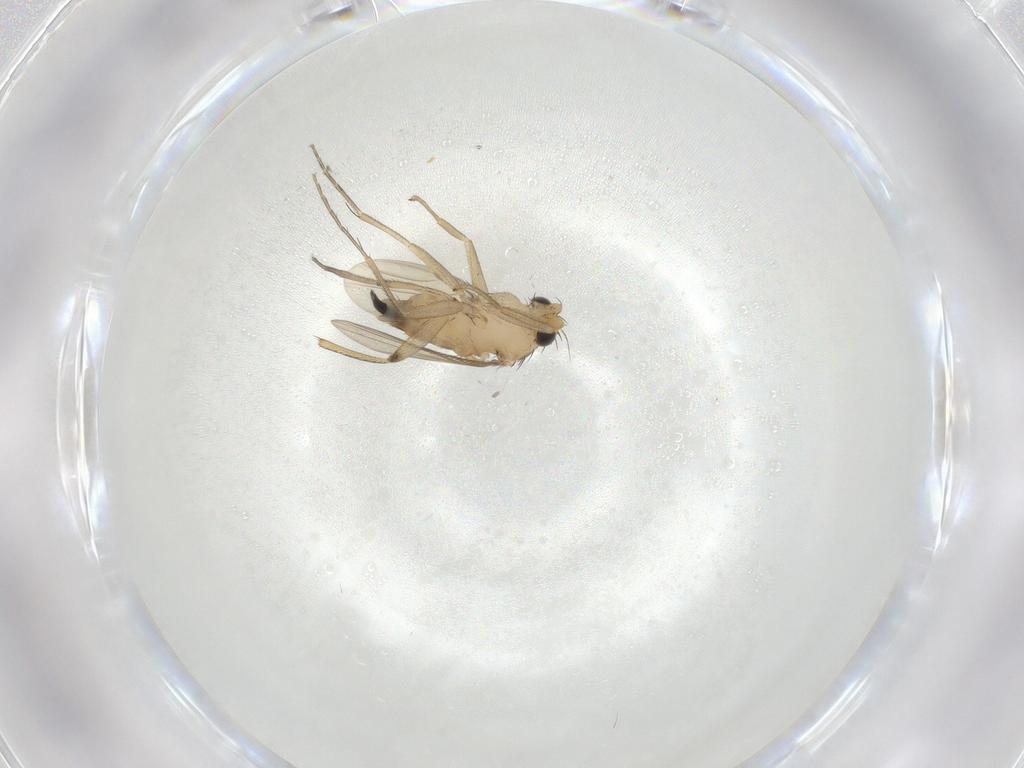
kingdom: Animalia
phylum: Arthropoda
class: Insecta
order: Diptera
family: Phoridae
